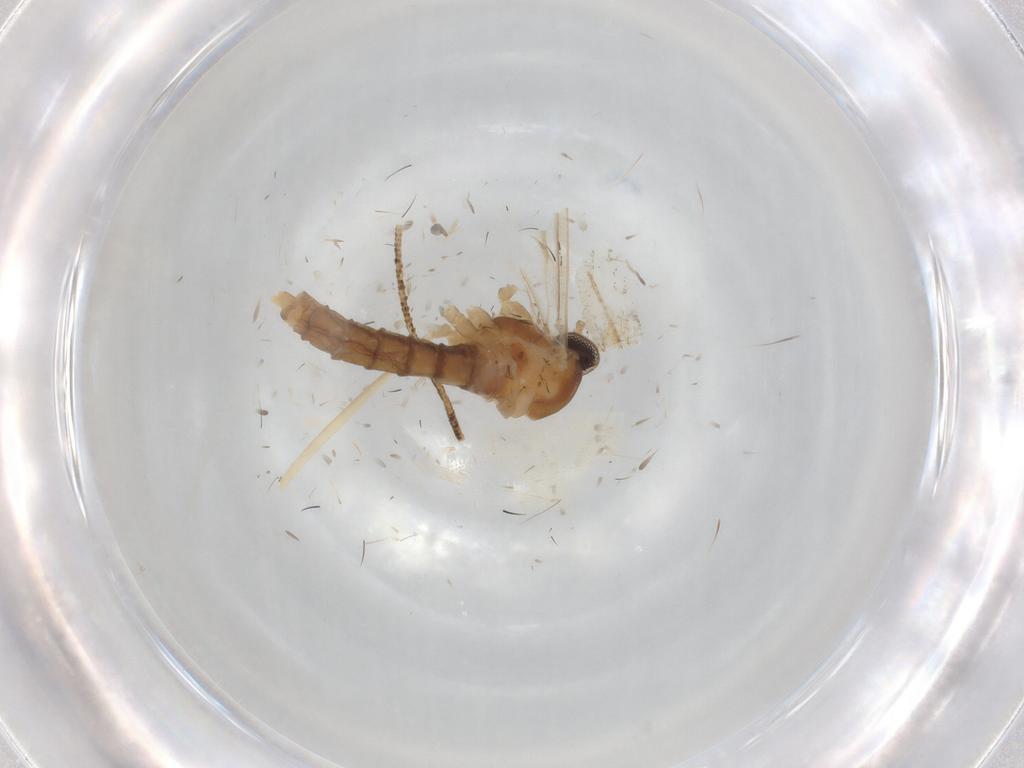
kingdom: Animalia
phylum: Arthropoda
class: Insecta
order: Diptera
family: Cecidomyiidae
